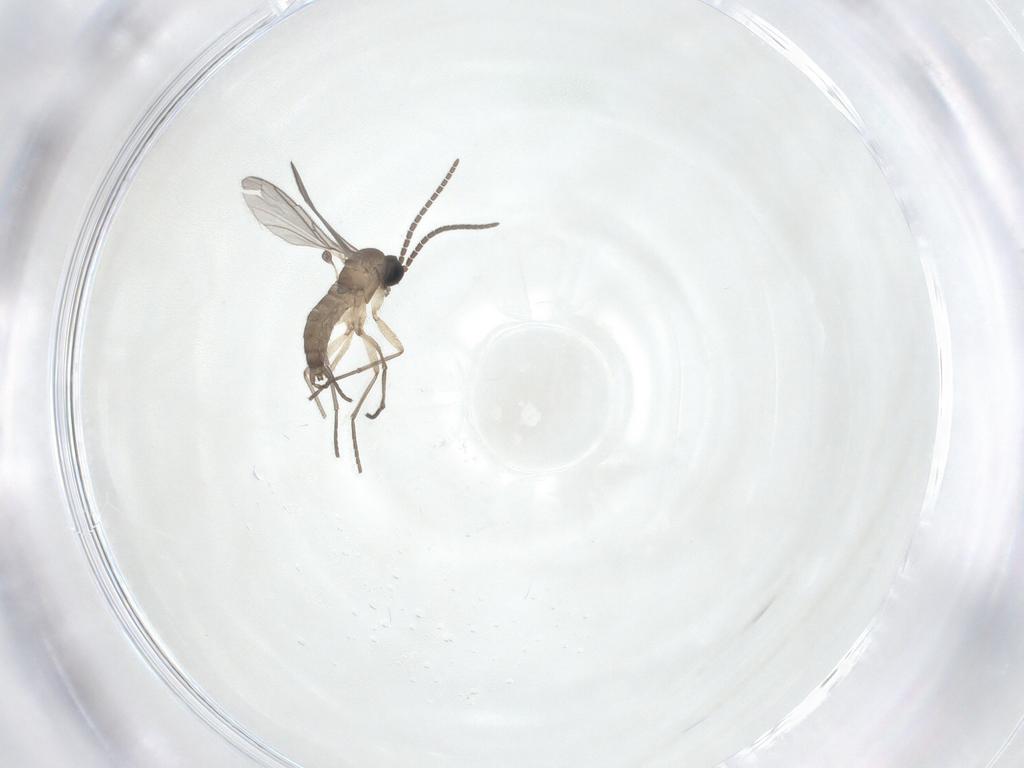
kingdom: Animalia
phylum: Arthropoda
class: Insecta
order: Diptera
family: Sciaridae
